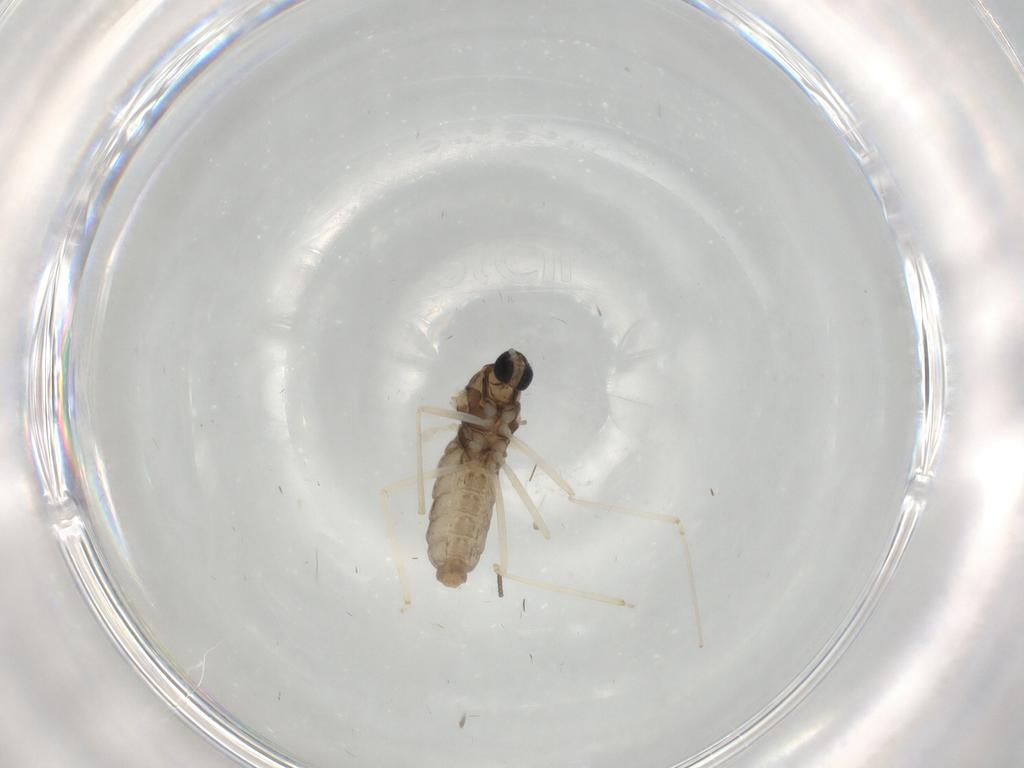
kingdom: Animalia
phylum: Arthropoda
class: Insecta
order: Diptera
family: Cecidomyiidae
